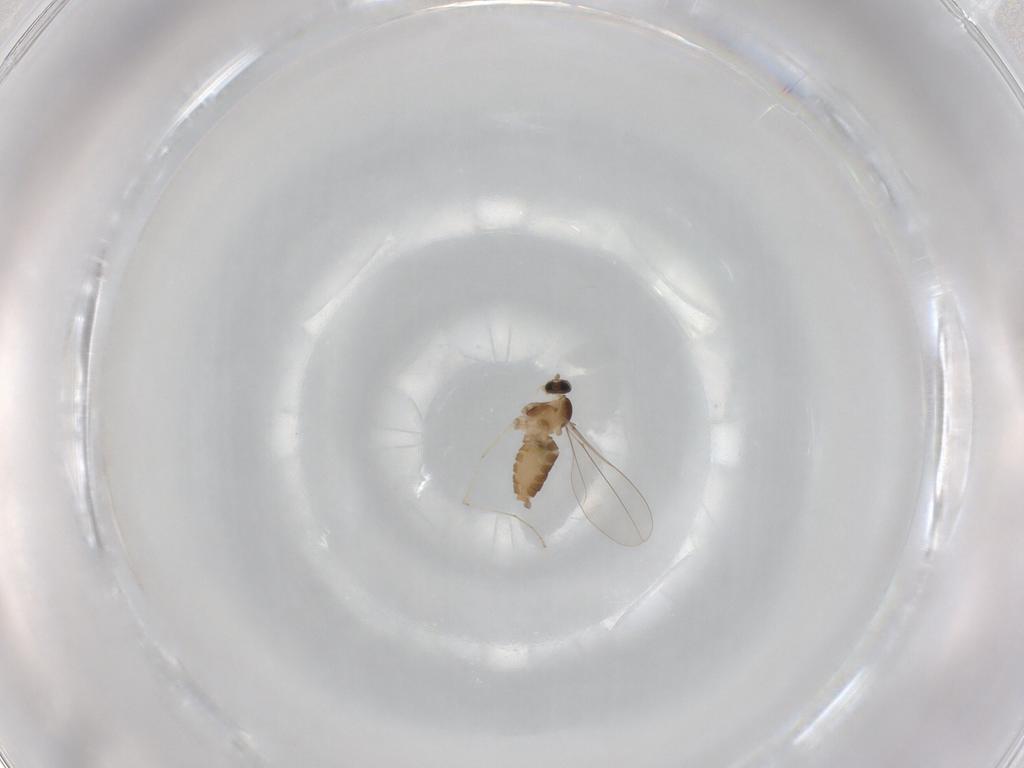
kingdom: Animalia
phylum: Arthropoda
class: Insecta
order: Diptera
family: Cecidomyiidae
